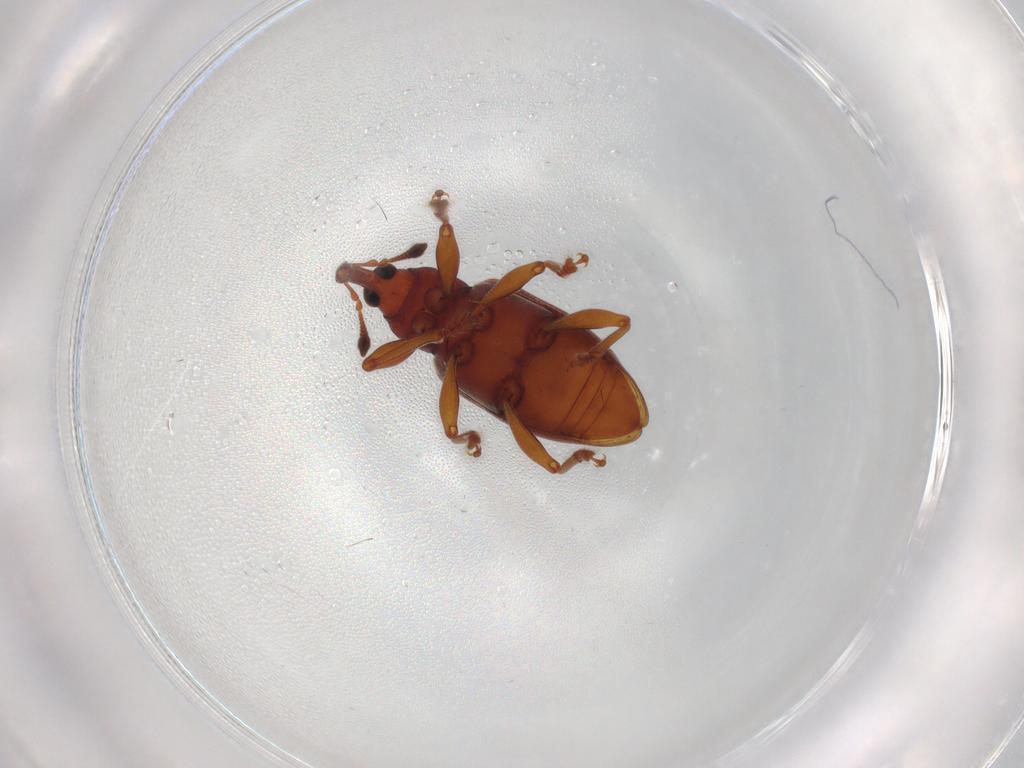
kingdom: Animalia
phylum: Arthropoda
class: Insecta
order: Coleoptera
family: Curculionidae
